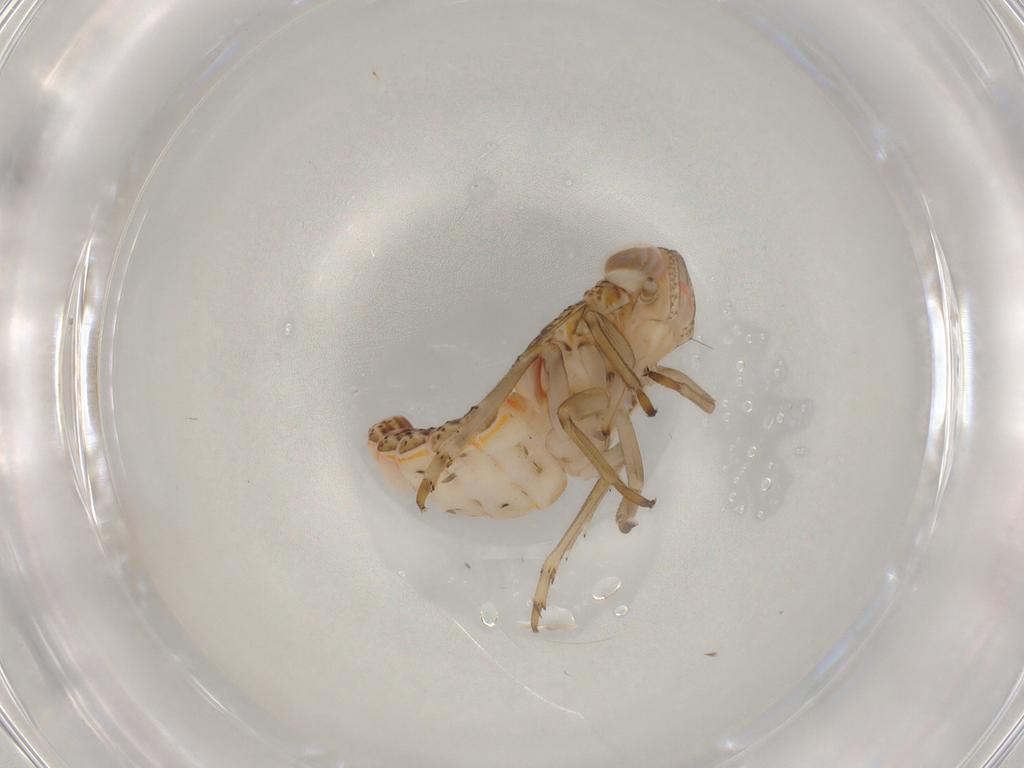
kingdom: Animalia
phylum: Arthropoda
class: Insecta
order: Hemiptera
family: Issidae
